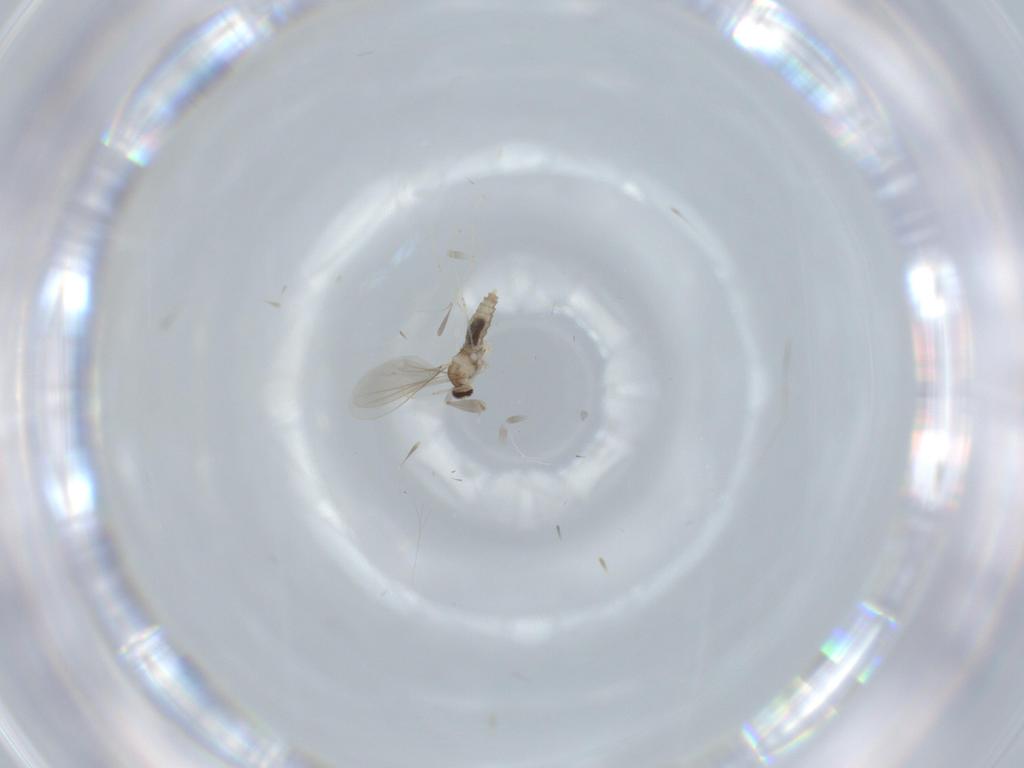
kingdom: Animalia
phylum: Arthropoda
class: Insecta
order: Diptera
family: Cecidomyiidae
